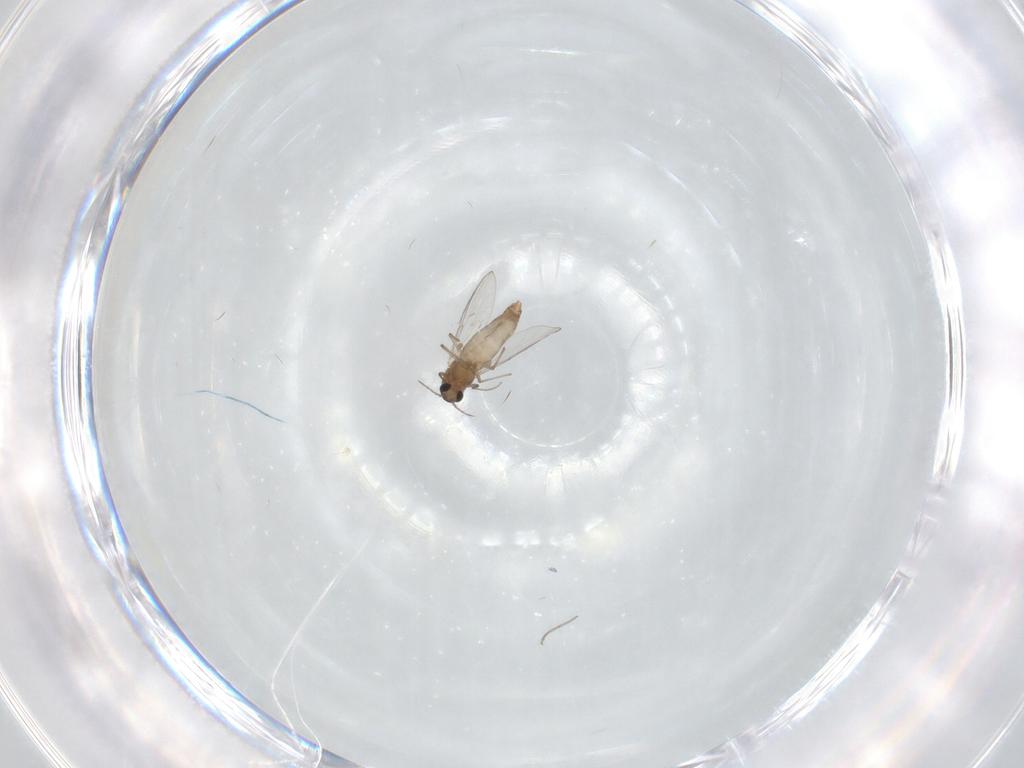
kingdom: Animalia
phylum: Arthropoda
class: Insecta
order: Diptera
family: Chironomidae
